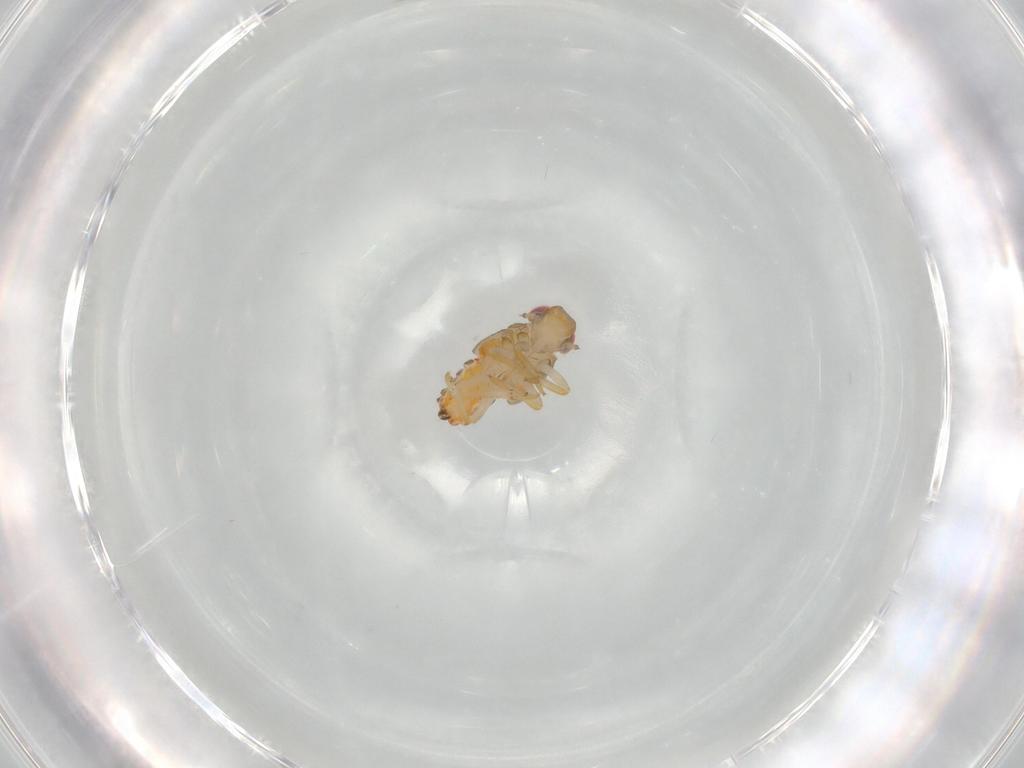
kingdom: Animalia
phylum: Arthropoda
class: Insecta
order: Hemiptera
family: Issidae
